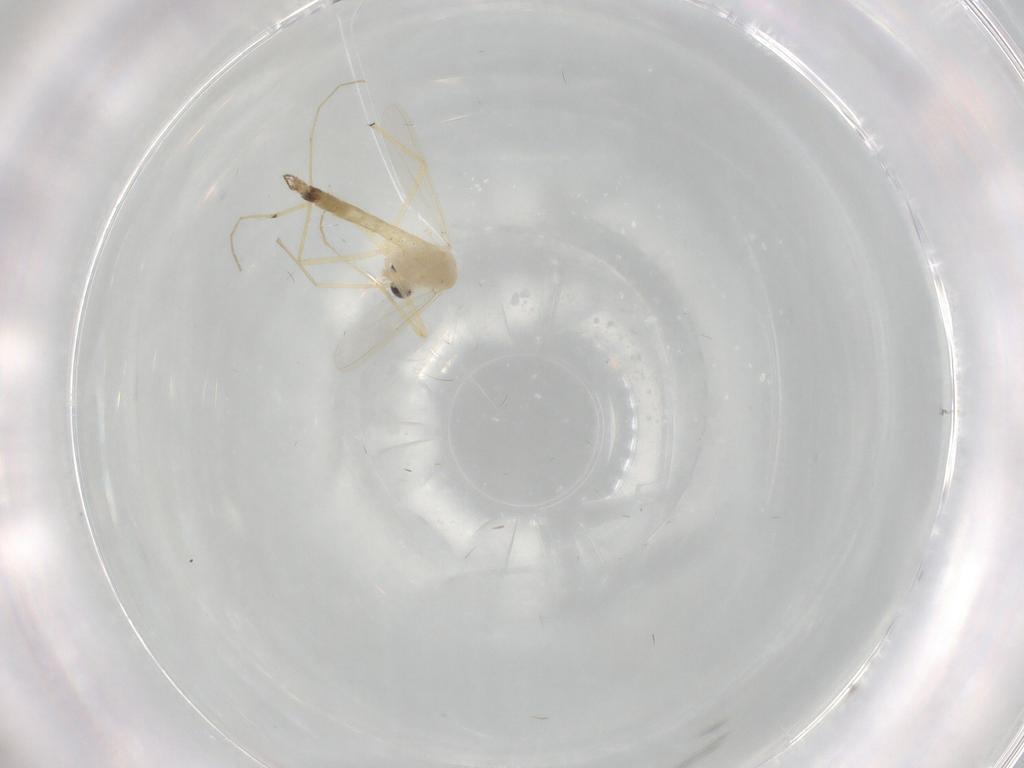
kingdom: Animalia
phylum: Arthropoda
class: Insecta
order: Diptera
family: Chironomidae
